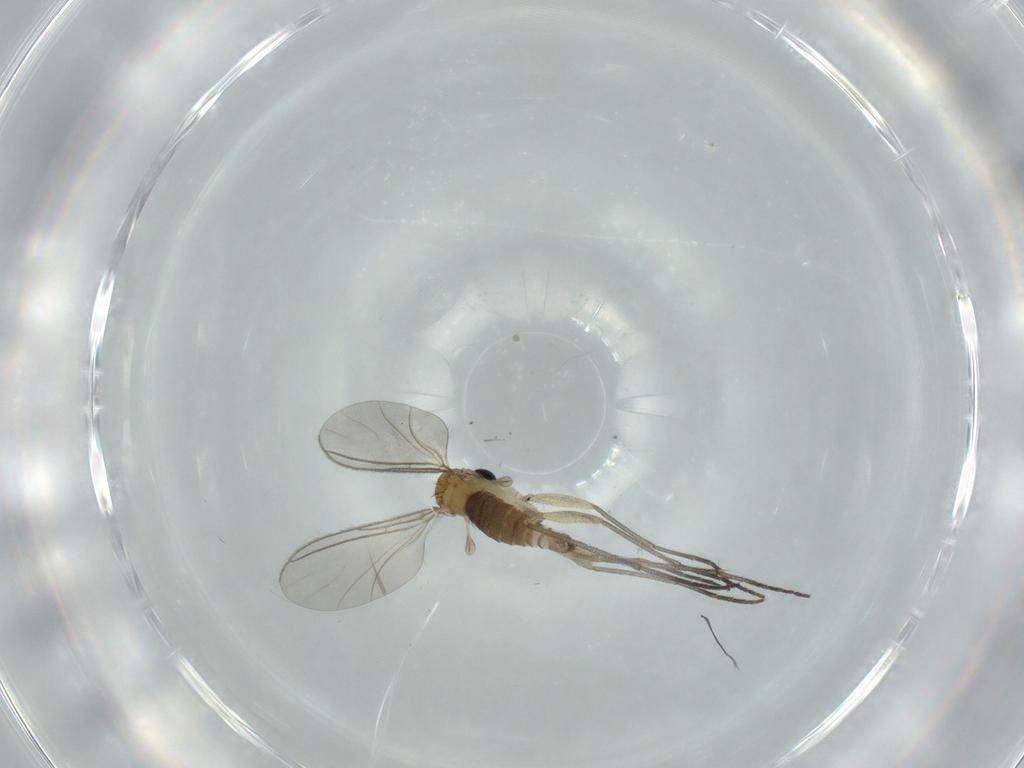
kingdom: Animalia
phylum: Arthropoda
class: Insecta
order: Diptera
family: Sciaridae
